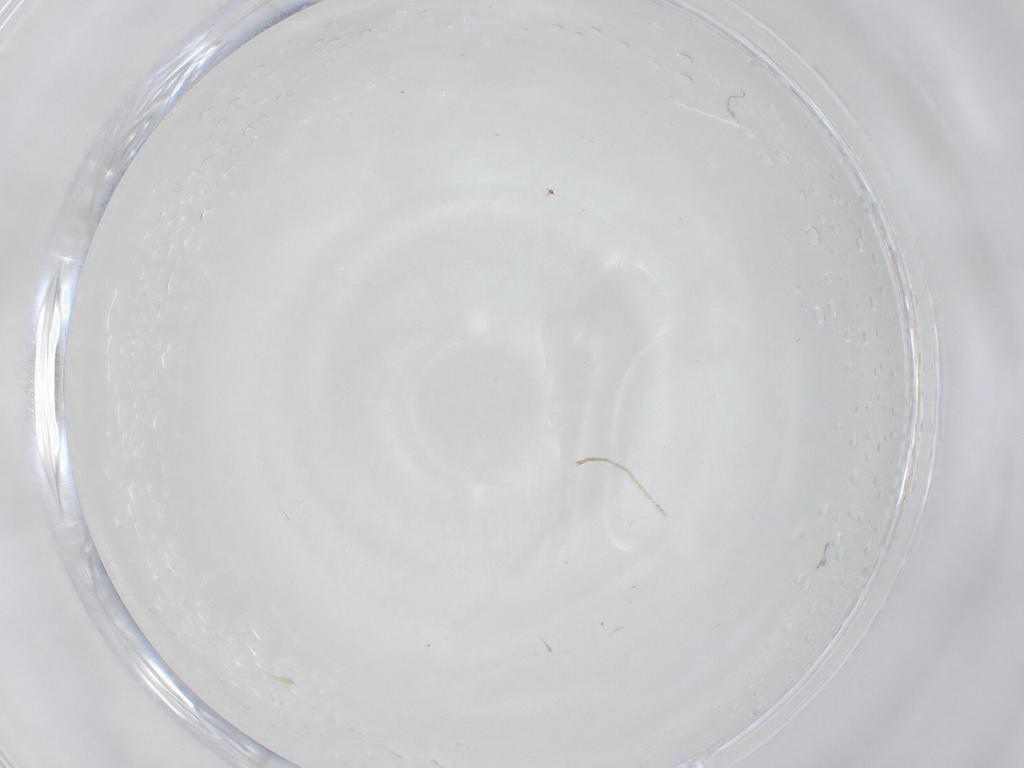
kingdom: Animalia
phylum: Arthropoda
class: Insecta
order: Diptera
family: Cecidomyiidae
